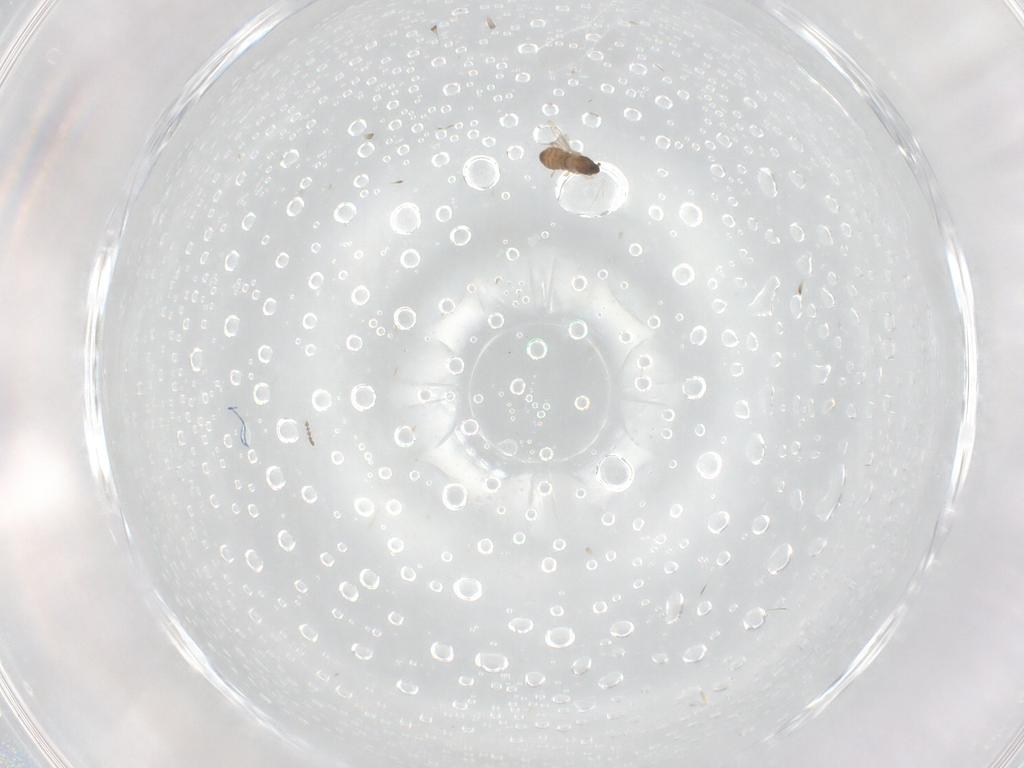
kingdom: Animalia
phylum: Arthropoda
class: Insecta
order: Diptera
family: Cecidomyiidae
